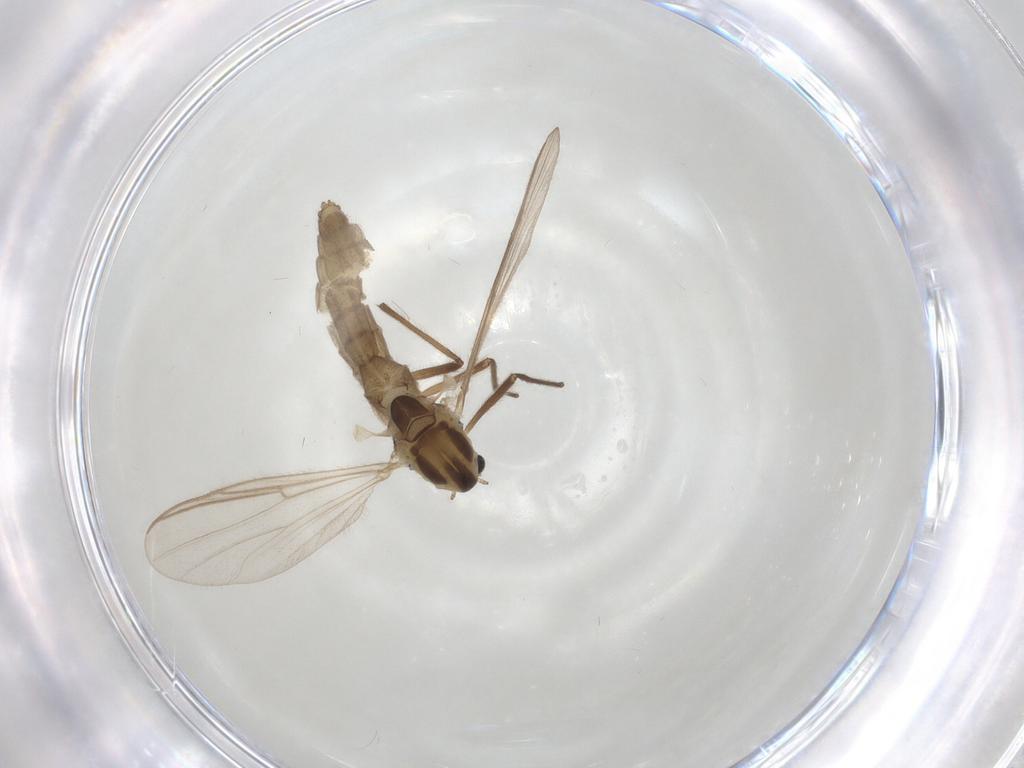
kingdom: Animalia
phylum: Arthropoda
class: Insecta
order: Diptera
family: Chironomidae
